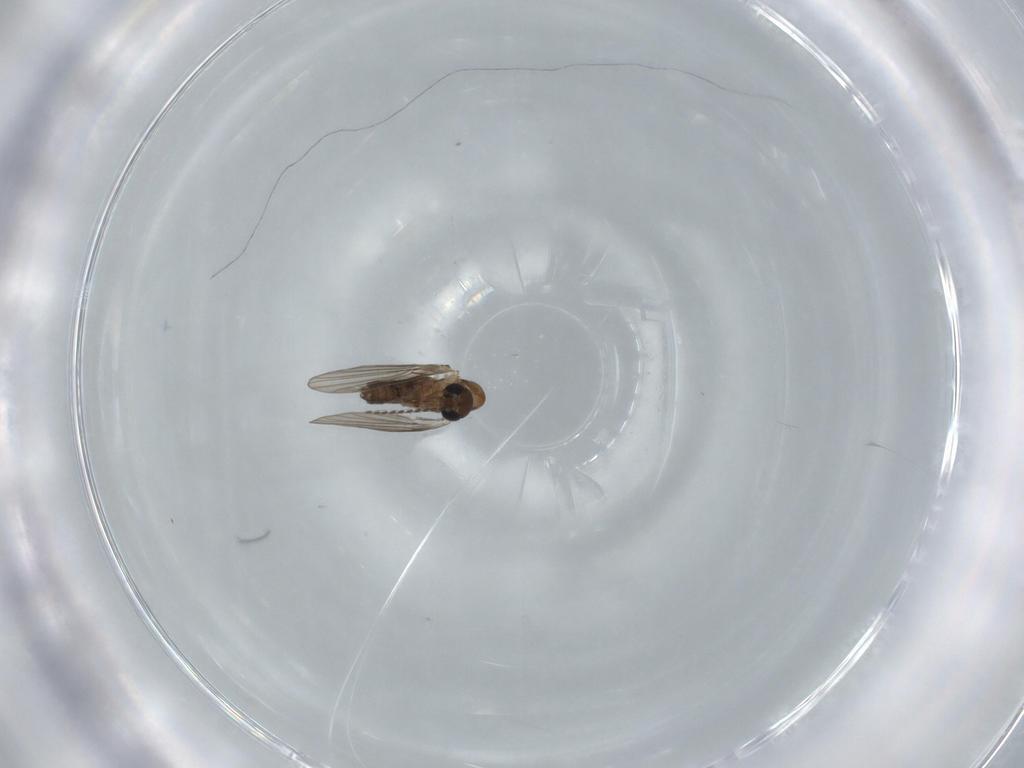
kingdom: Animalia
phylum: Arthropoda
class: Insecta
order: Diptera
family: Psychodidae
